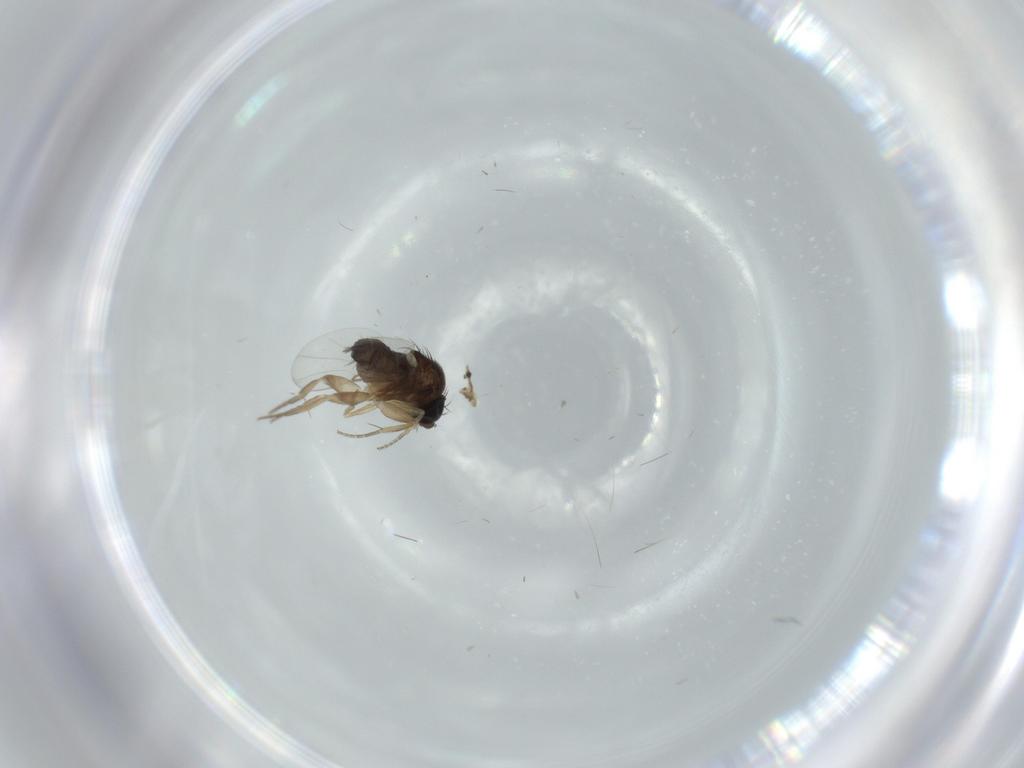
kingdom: Animalia
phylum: Arthropoda
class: Insecta
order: Diptera
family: Phoridae
